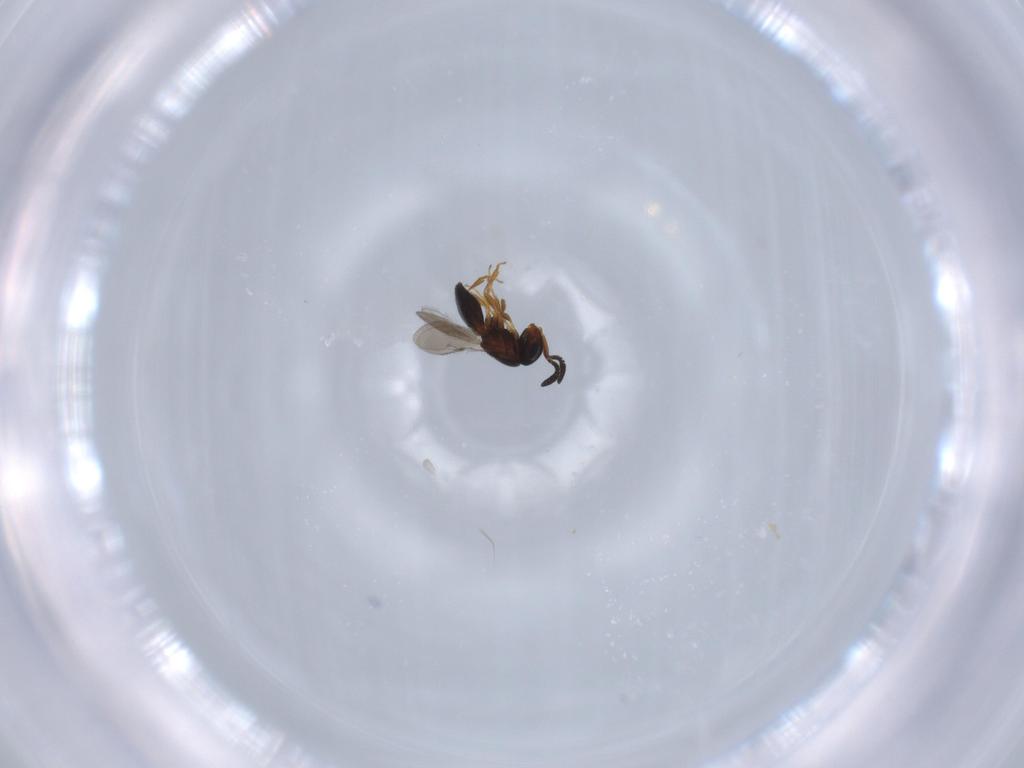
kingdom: Animalia
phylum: Arthropoda
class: Insecta
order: Hymenoptera
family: Scelionidae
